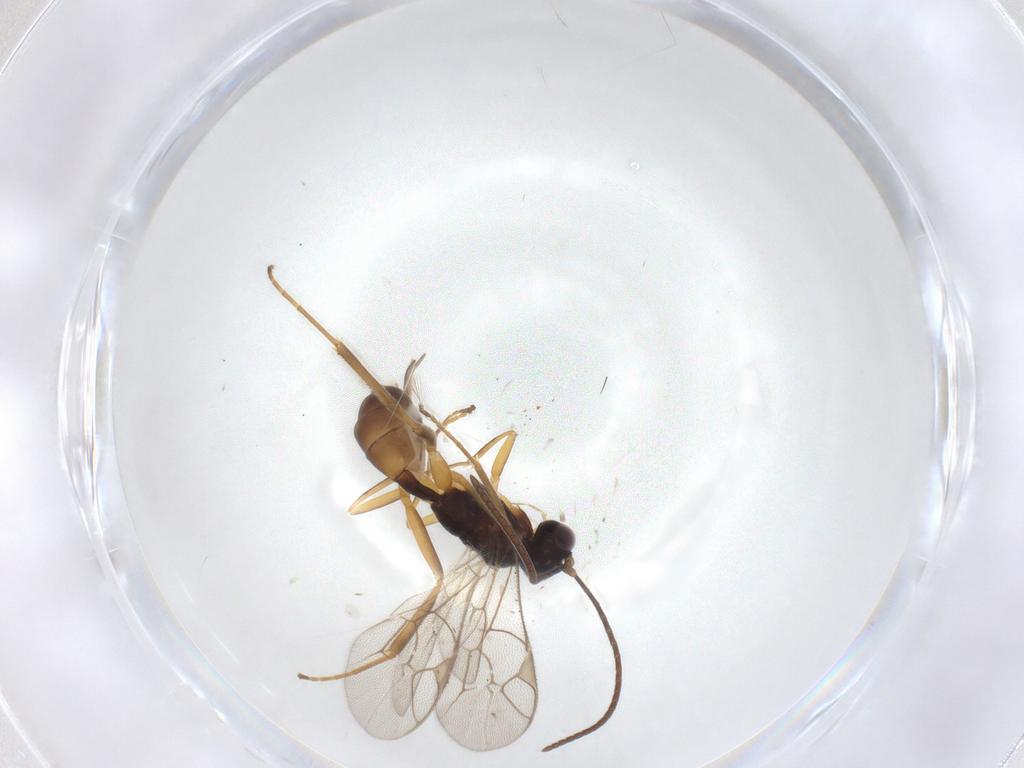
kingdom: Animalia
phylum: Arthropoda
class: Insecta
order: Hymenoptera
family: Ichneumonidae
